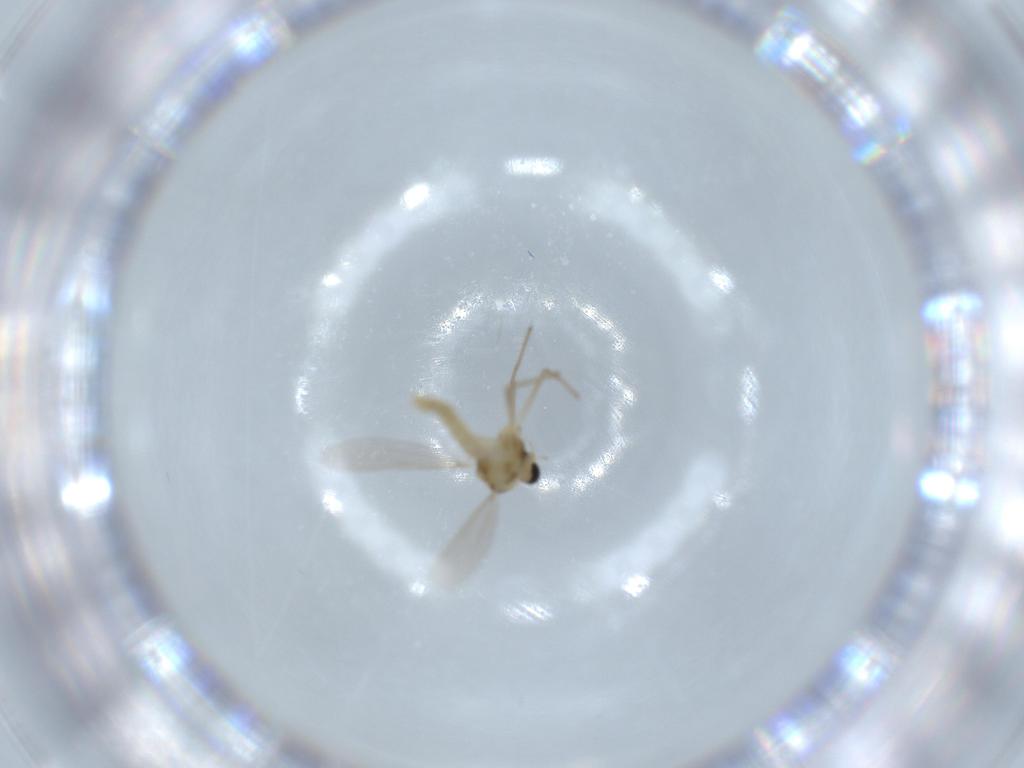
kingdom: Animalia
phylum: Arthropoda
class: Insecta
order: Diptera
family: Chironomidae
